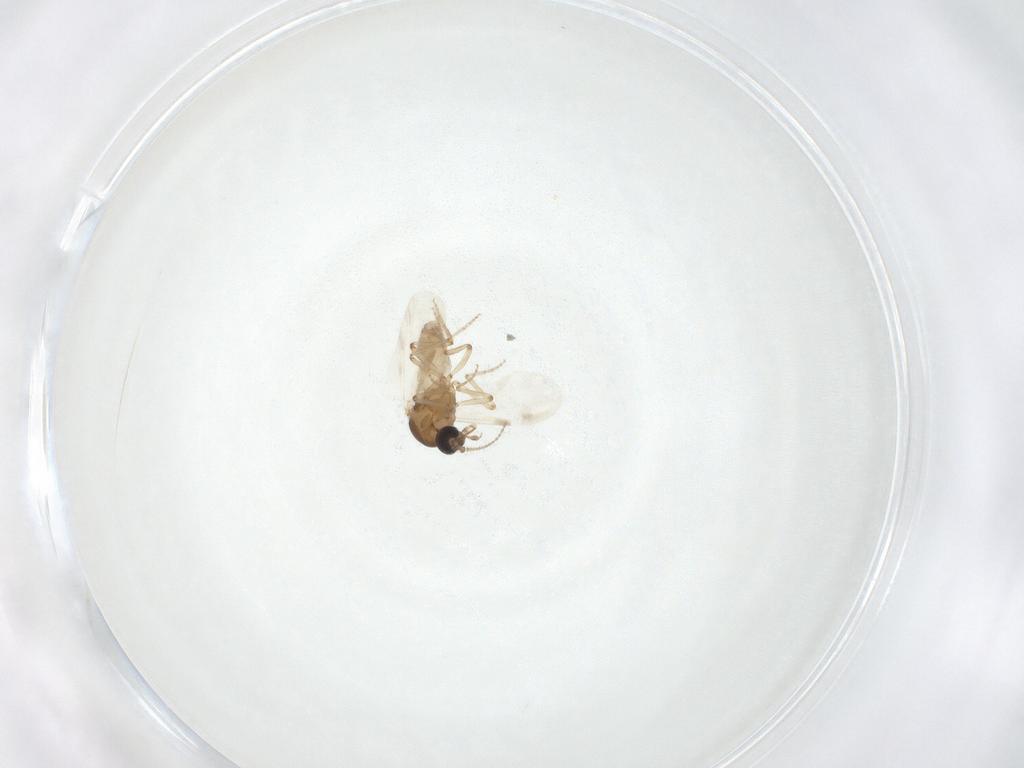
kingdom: Animalia
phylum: Arthropoda
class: Insecta
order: Diptera
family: Ceratopogonidae
